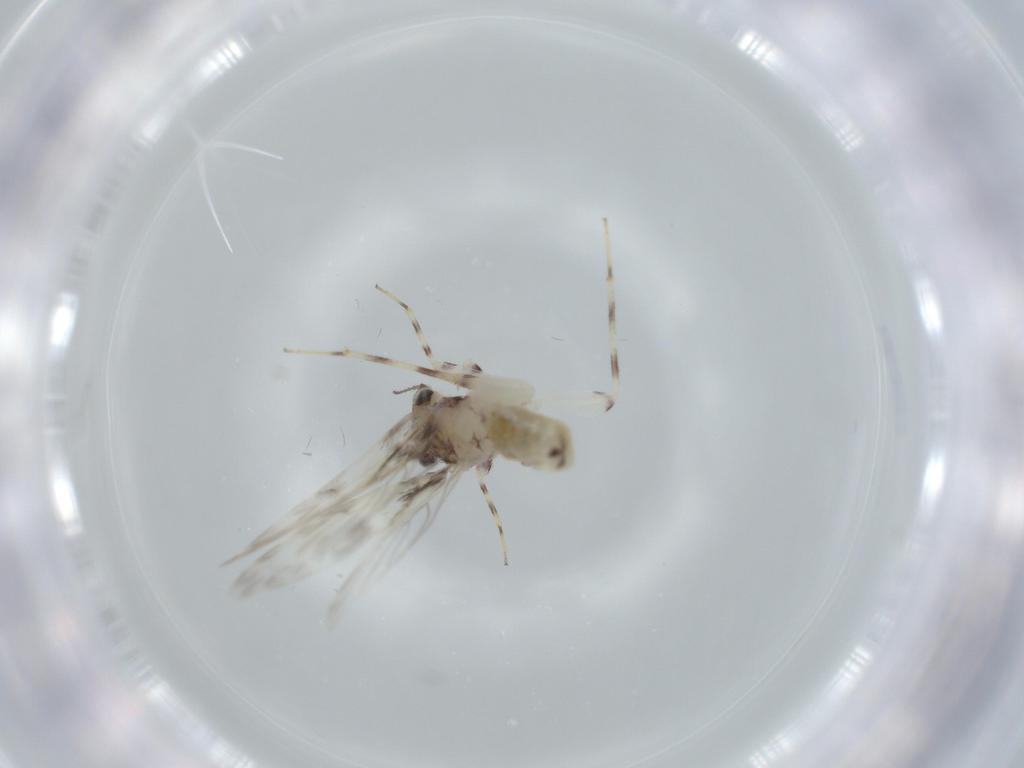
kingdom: Animalia
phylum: Arthropoda
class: Insecta
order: Psocodea
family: Lepidopsocidae
